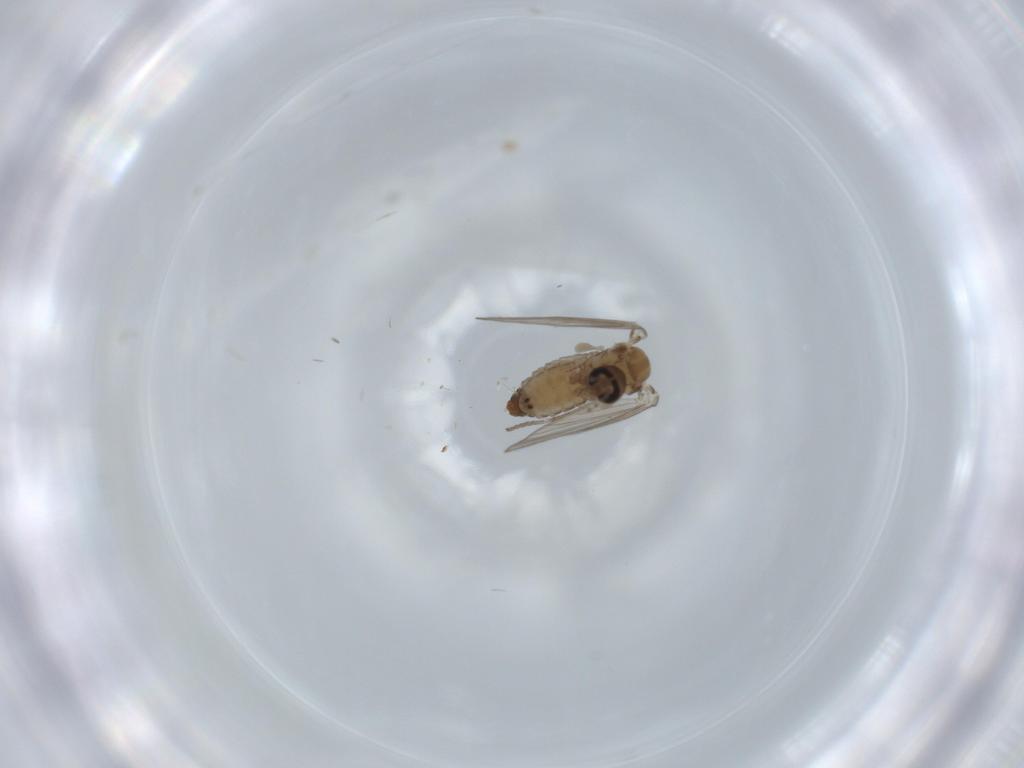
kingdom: Animalia
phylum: Arthropoda
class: Insecta
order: Diptera
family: Psychodidae
